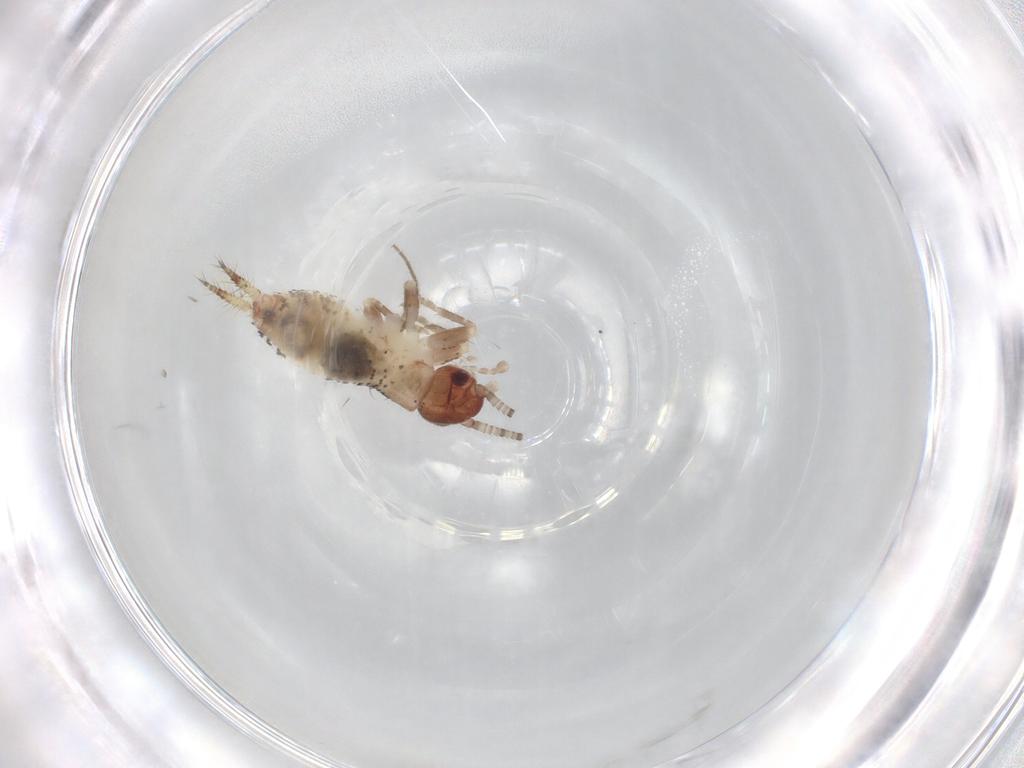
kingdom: Animalia
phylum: Arthropoda
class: Insecta
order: Orthoptera
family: Mogoplistidae
